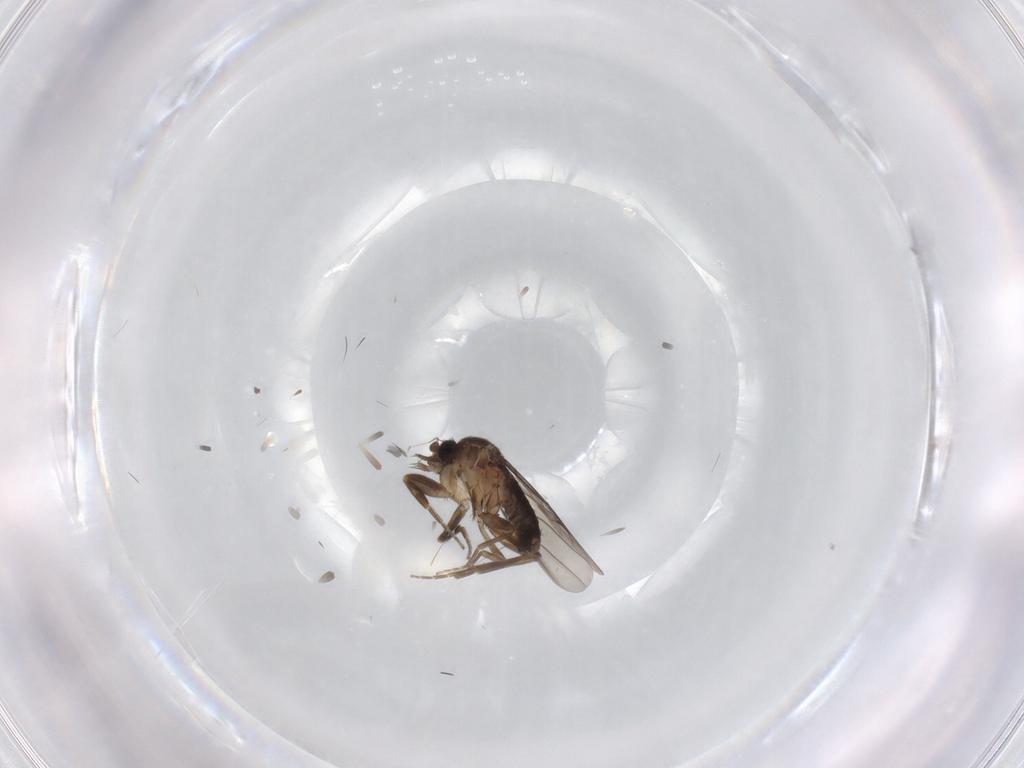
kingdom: Animalia
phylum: Arthropoda
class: Insecta
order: Diptera
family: Phoridae
